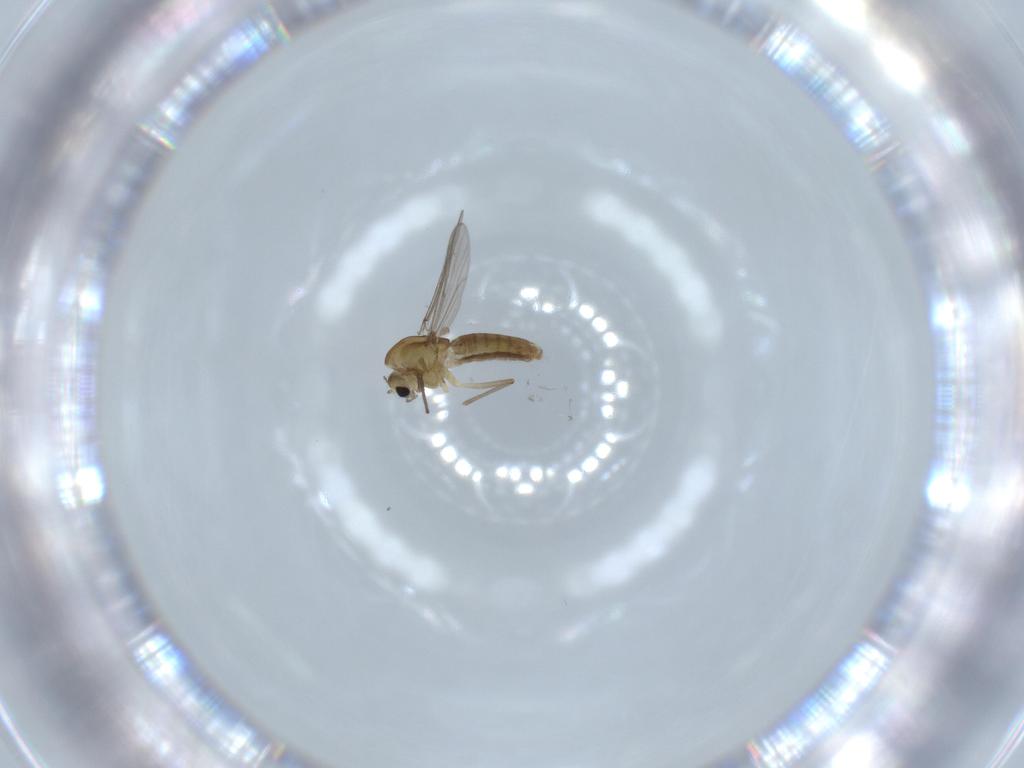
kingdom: Animalia
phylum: Arthropoda
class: Insecta
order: Diptera
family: Chironomidae
